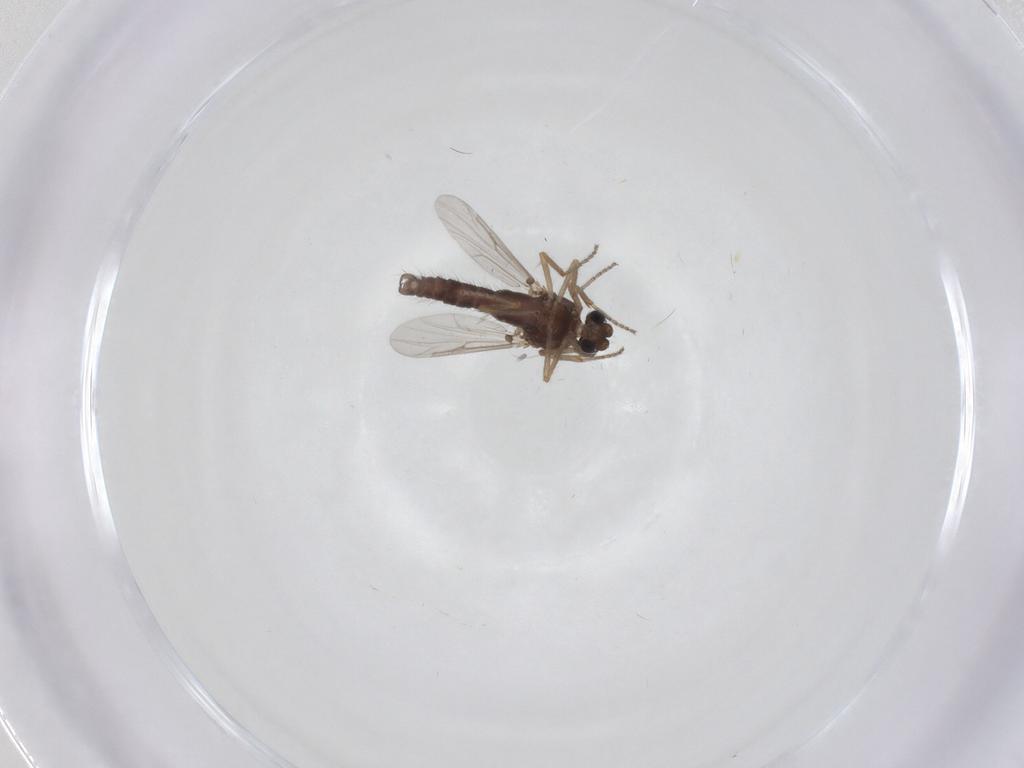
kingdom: Animalia
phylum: Arthropoda
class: Insecta
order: Diptera
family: Ceratopogonidae
